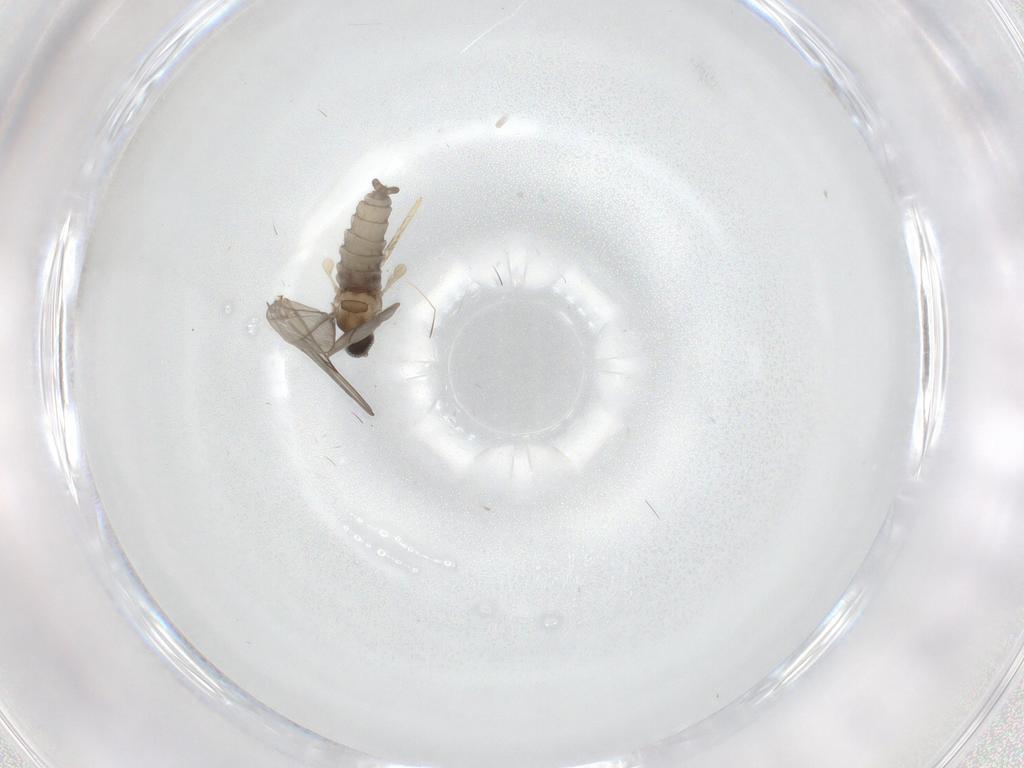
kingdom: Animalia
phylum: Arthropoda
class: Insecta
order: Diptera
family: Cecidomyiidae
